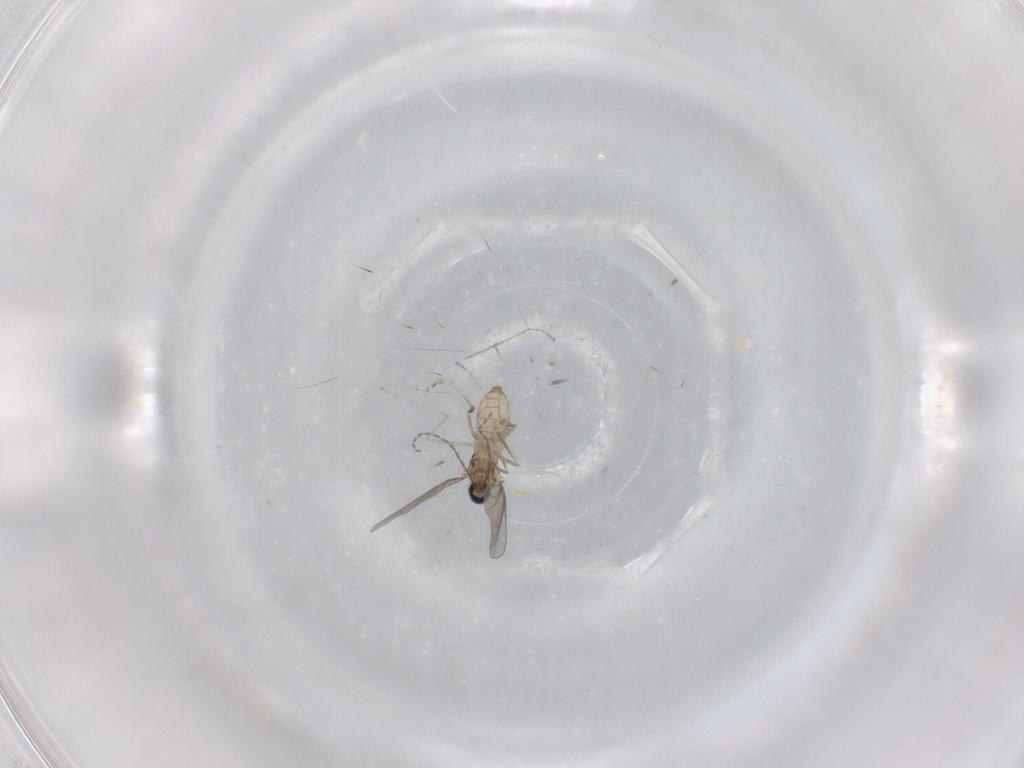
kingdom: Animalia
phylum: Arthropoda
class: Insecta
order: Diptera
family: Cecidomyiidae
